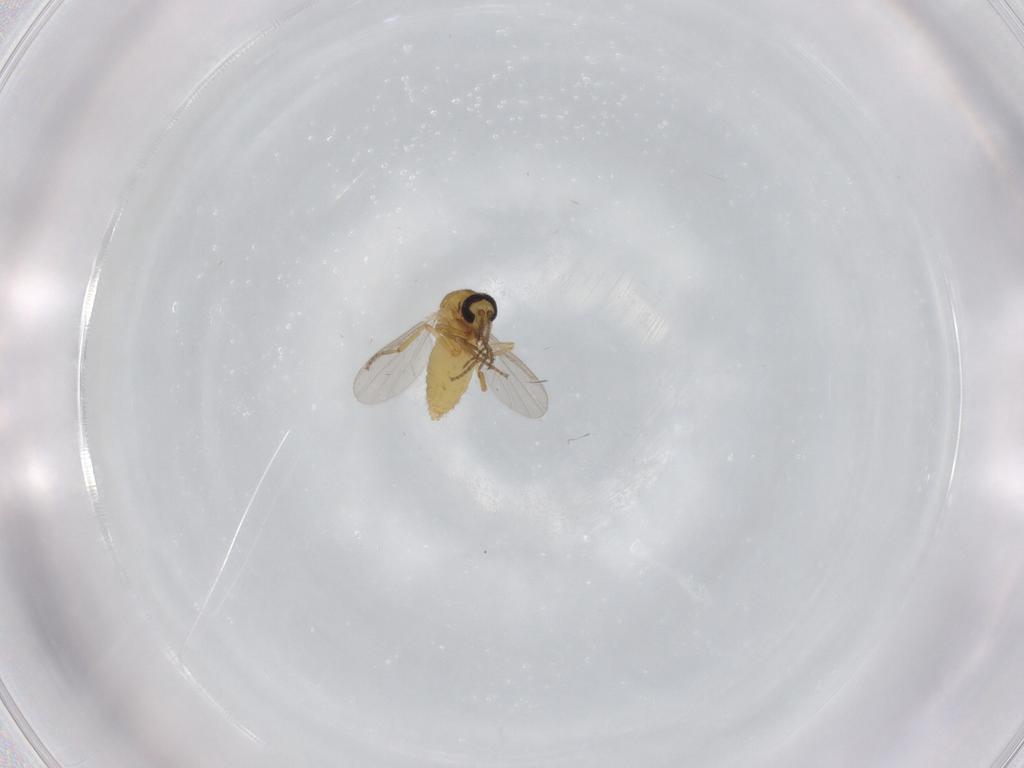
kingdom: Animalia
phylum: Arthropoda
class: Insecta
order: Diptera
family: Ceratopogonidae
